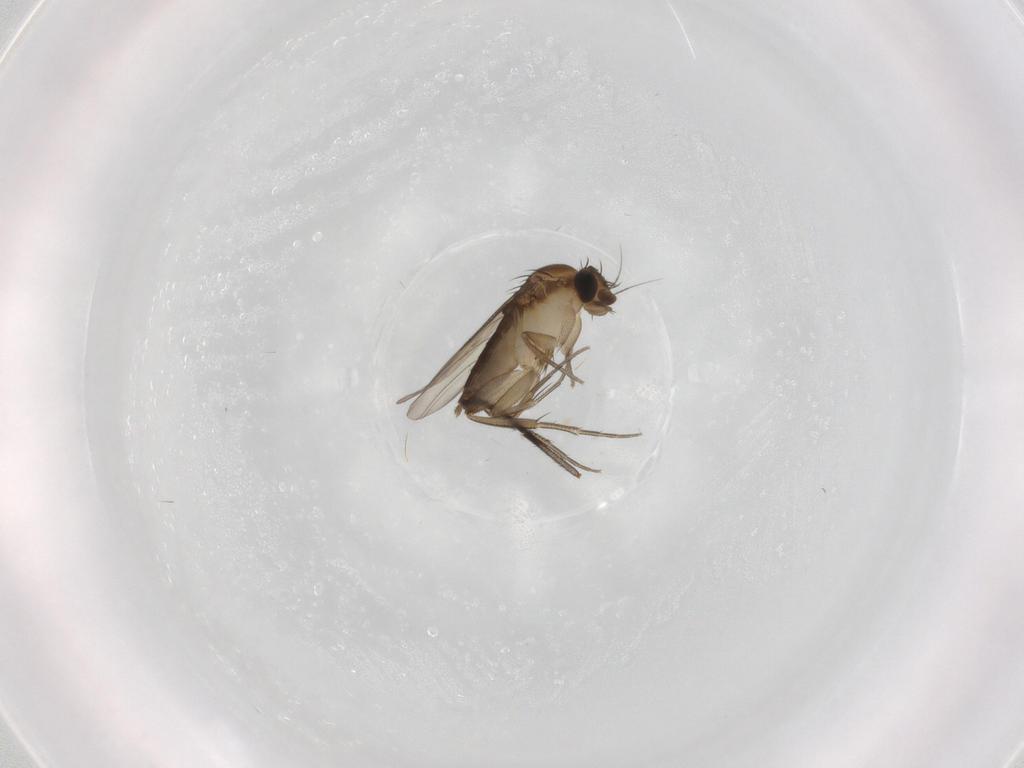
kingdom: Animalia
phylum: Arthropoda
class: Insecta
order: Diptera
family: Phoridae
